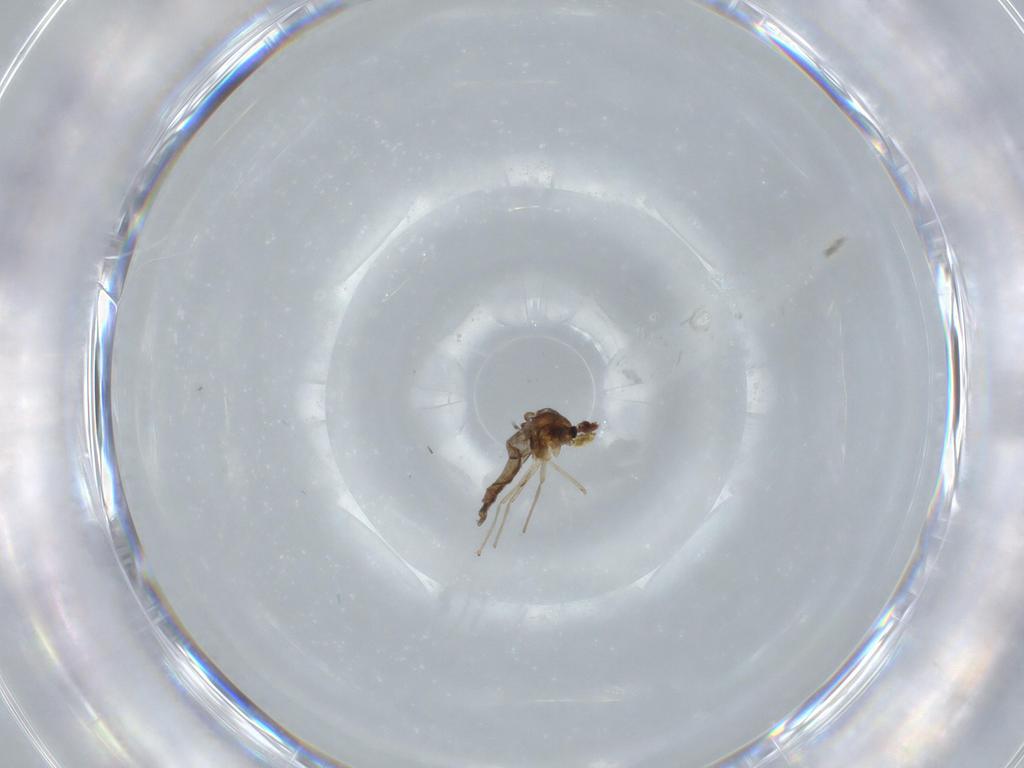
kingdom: Animalia
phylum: Arthropoda
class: Insecta
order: Diptera
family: Chironomidae
